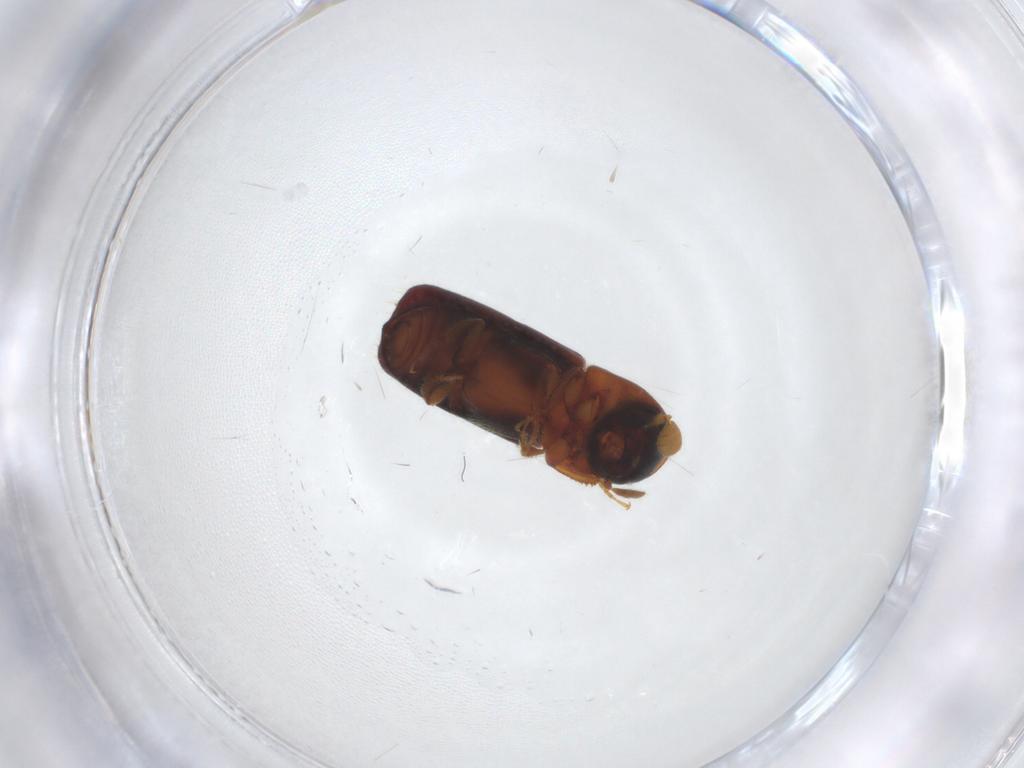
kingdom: Animalia
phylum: Arthropoda
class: Insecta
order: Coleoptera
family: Curculionidae
